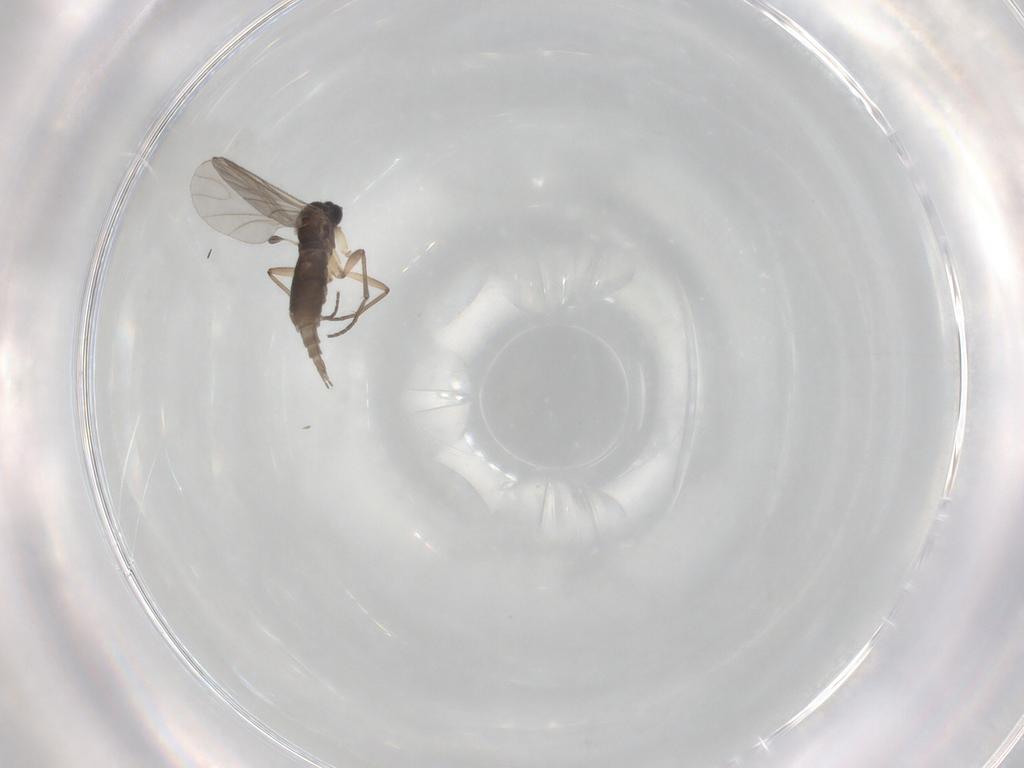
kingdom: Animalia
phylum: Arthropoda
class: Insecta
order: Diptera
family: Sciaridae
